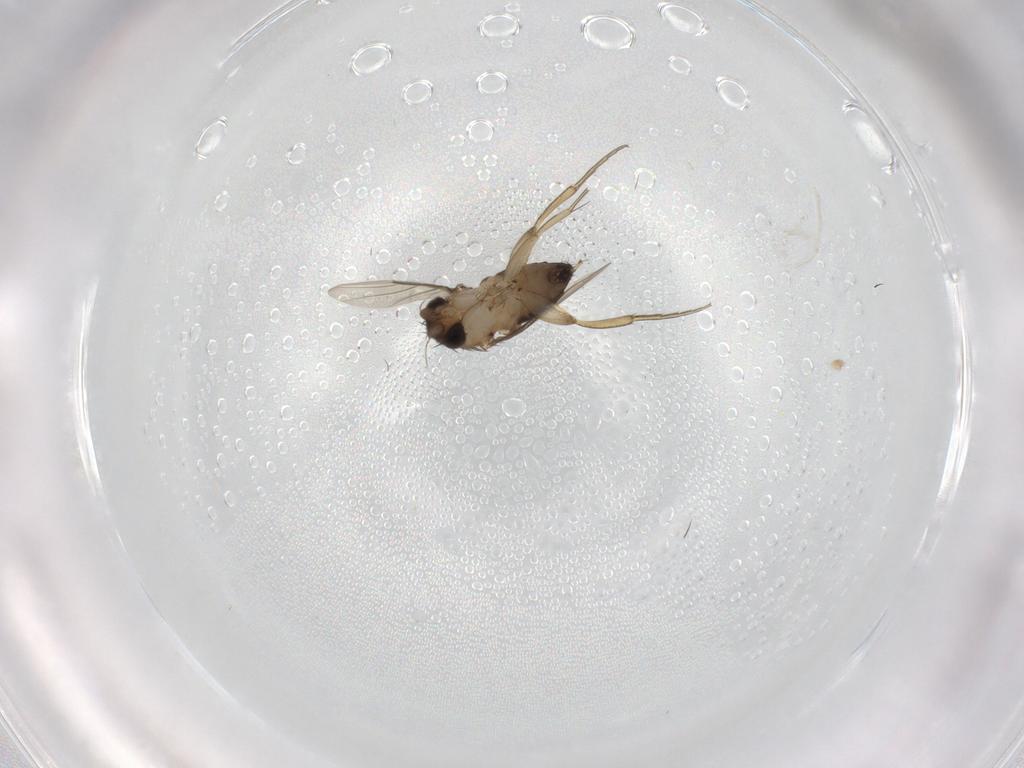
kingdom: Animalia
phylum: Arthropoda
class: Insecta
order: Diptera
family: Phoridae
